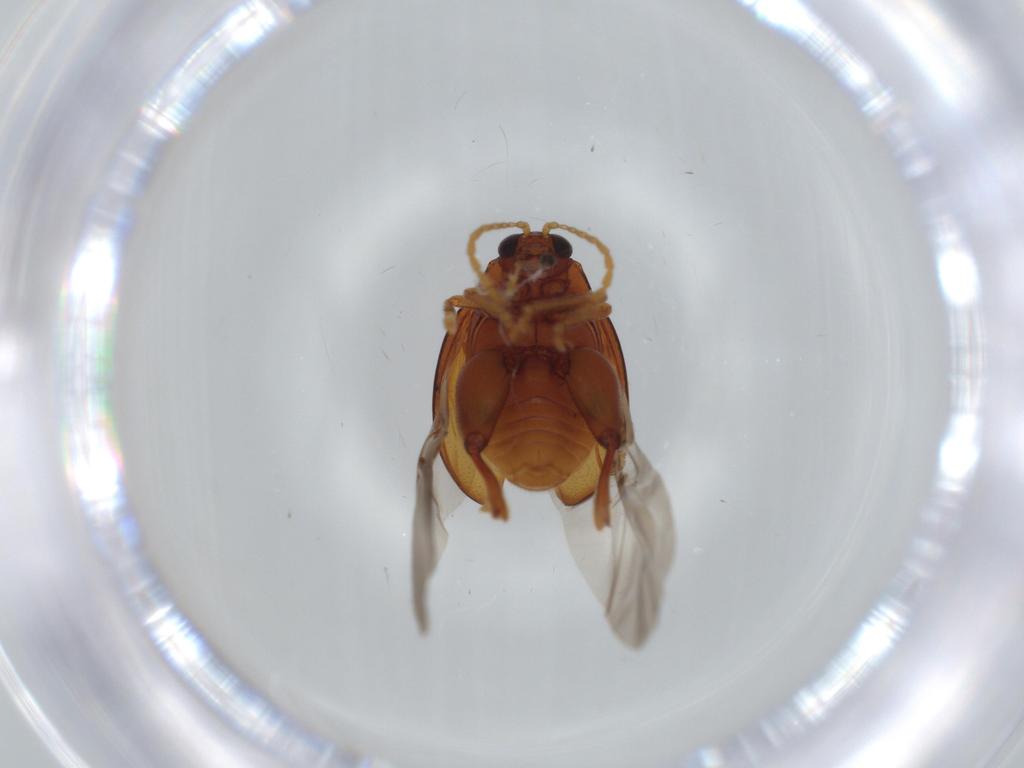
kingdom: Animalia
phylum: Arthropoda
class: Insecta
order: Coleoptera
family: Chrysomelidae
